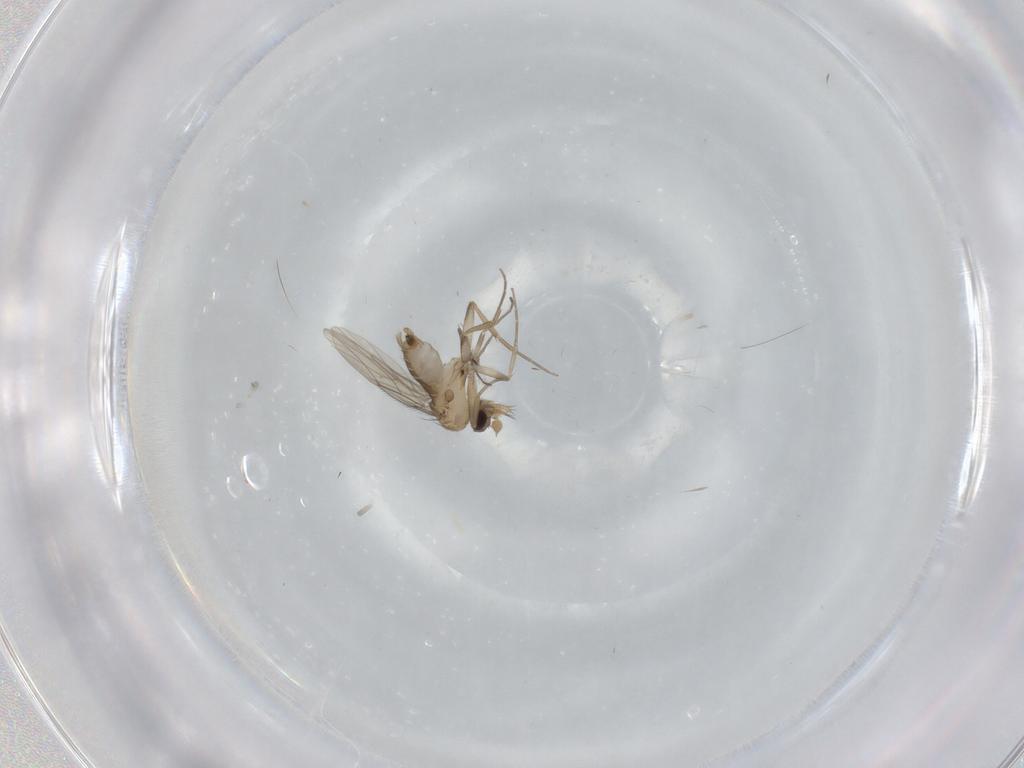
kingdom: Animalia
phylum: Arthropoda
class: Insecta
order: Diptera
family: Phoridae
